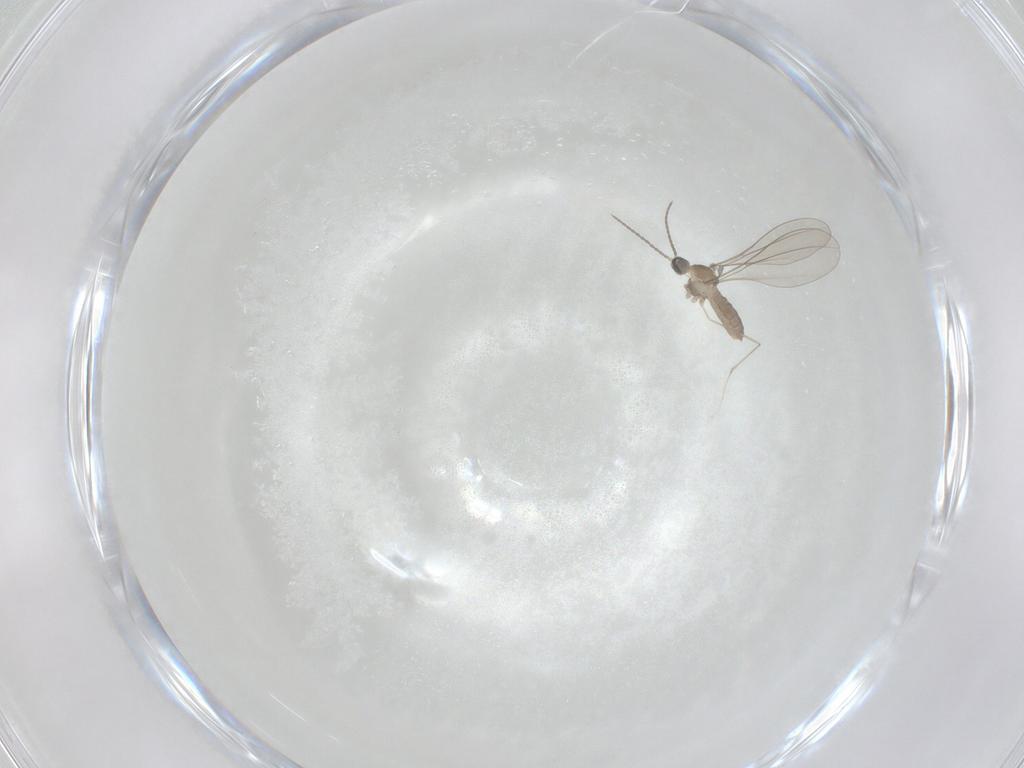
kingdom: Animalia
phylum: Arthropoda
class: Insecta
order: Diptera
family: Cecidomyiidae
